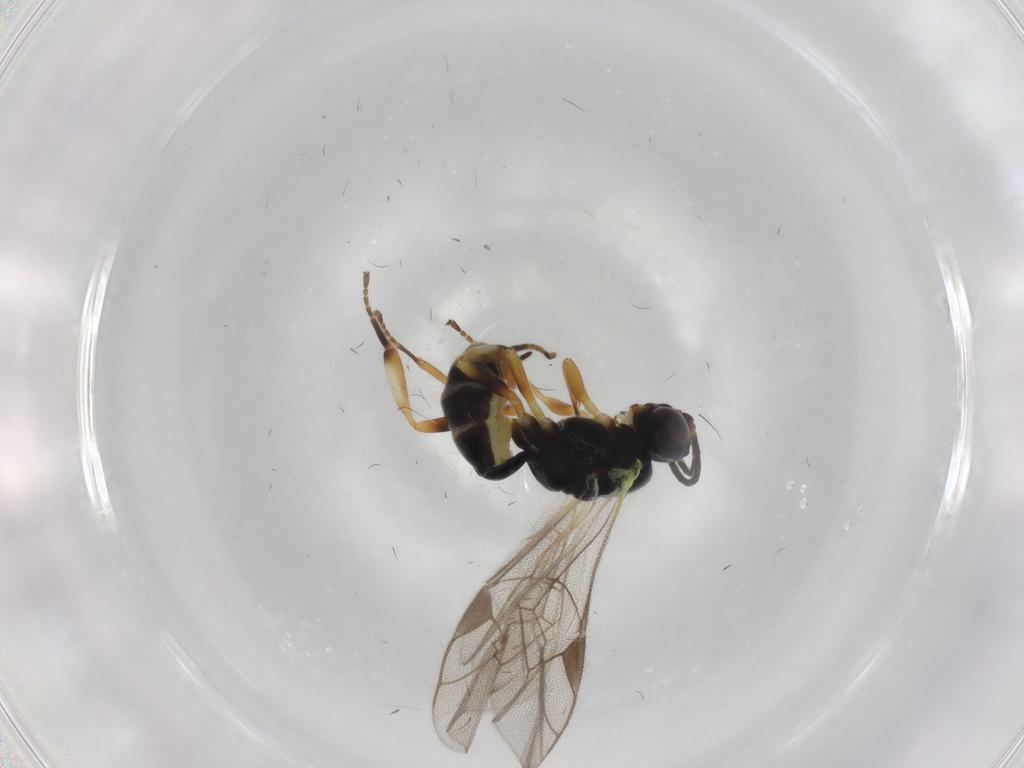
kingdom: Animalia
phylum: Arthropoda
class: Insecta
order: Hymenoptera
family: Ichneumonidae
